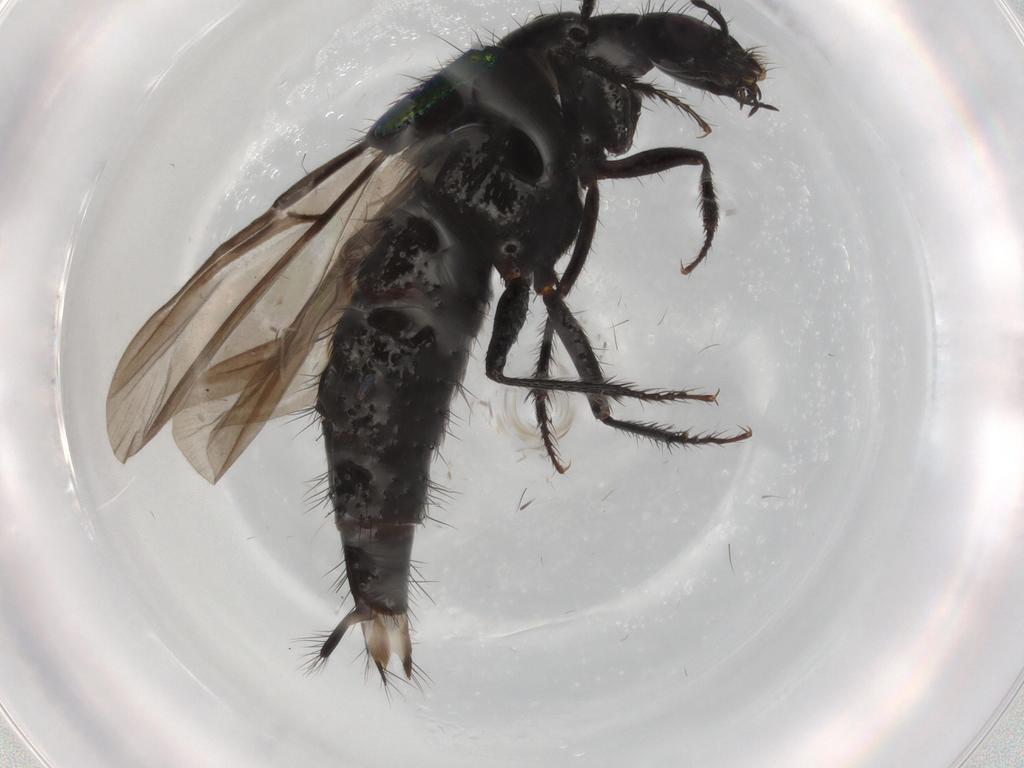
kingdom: Animalia
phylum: Arthropoda
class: Insecta
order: Coleoptera
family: Staphylinidae
